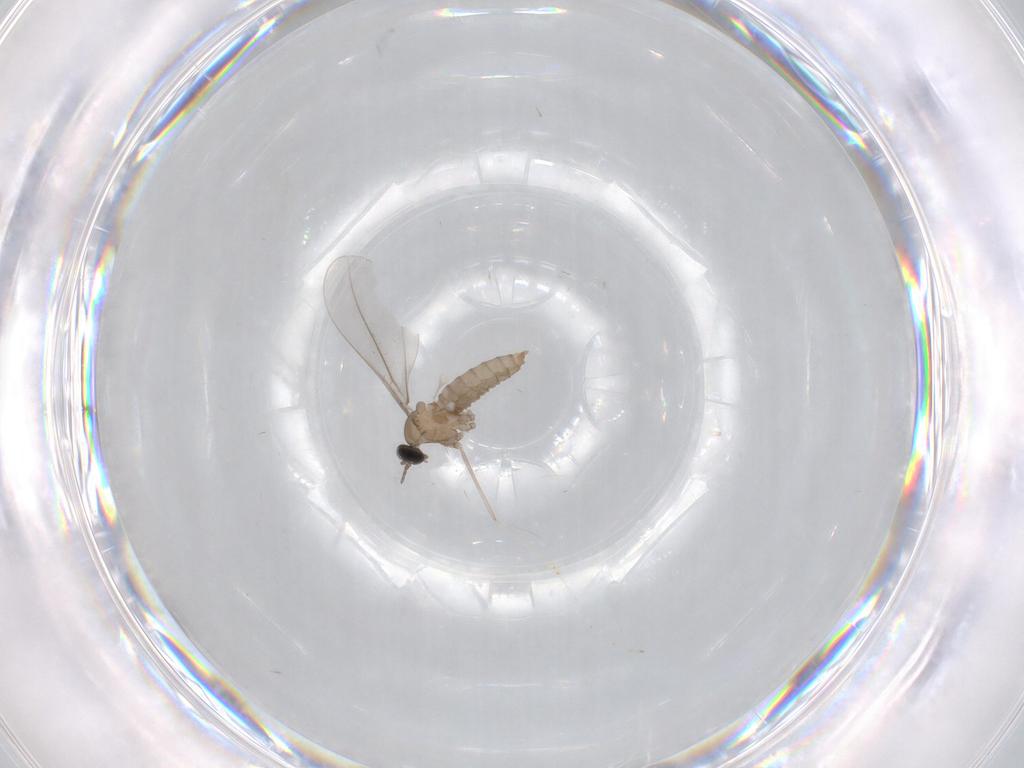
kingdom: Animalia
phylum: Arthropoda
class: Insecta
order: Diptera
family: Cecidomyiidae
